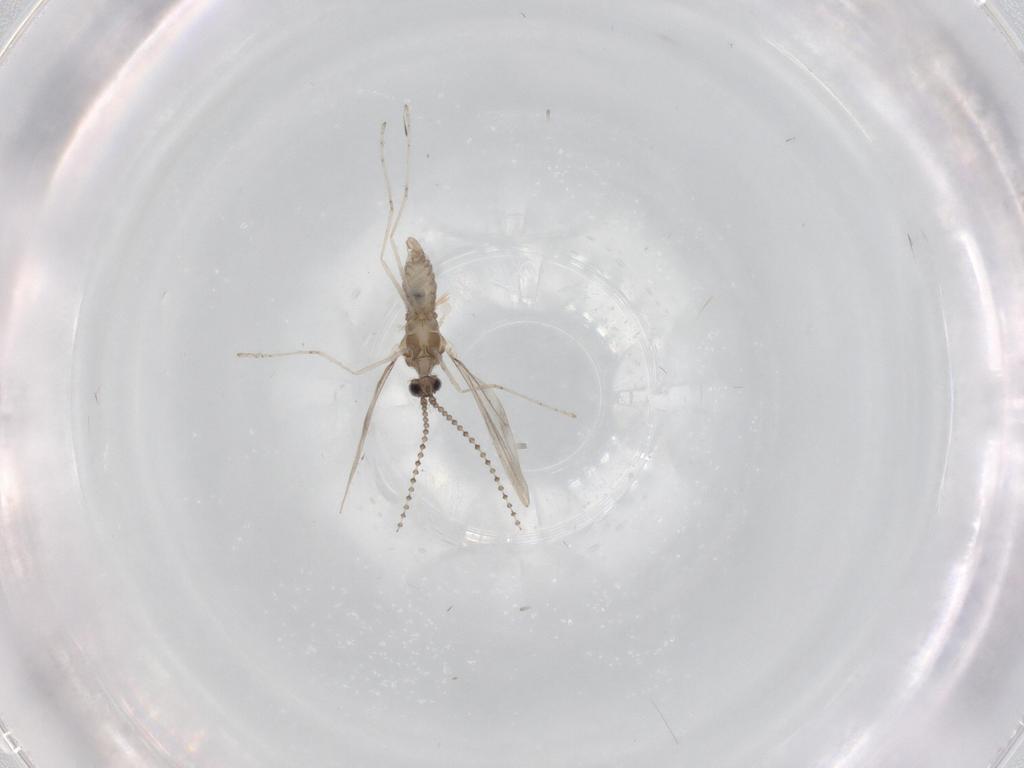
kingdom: Animalia
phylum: Arthropoda
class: Insecta
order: Diptera
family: Cecidomyiidae
